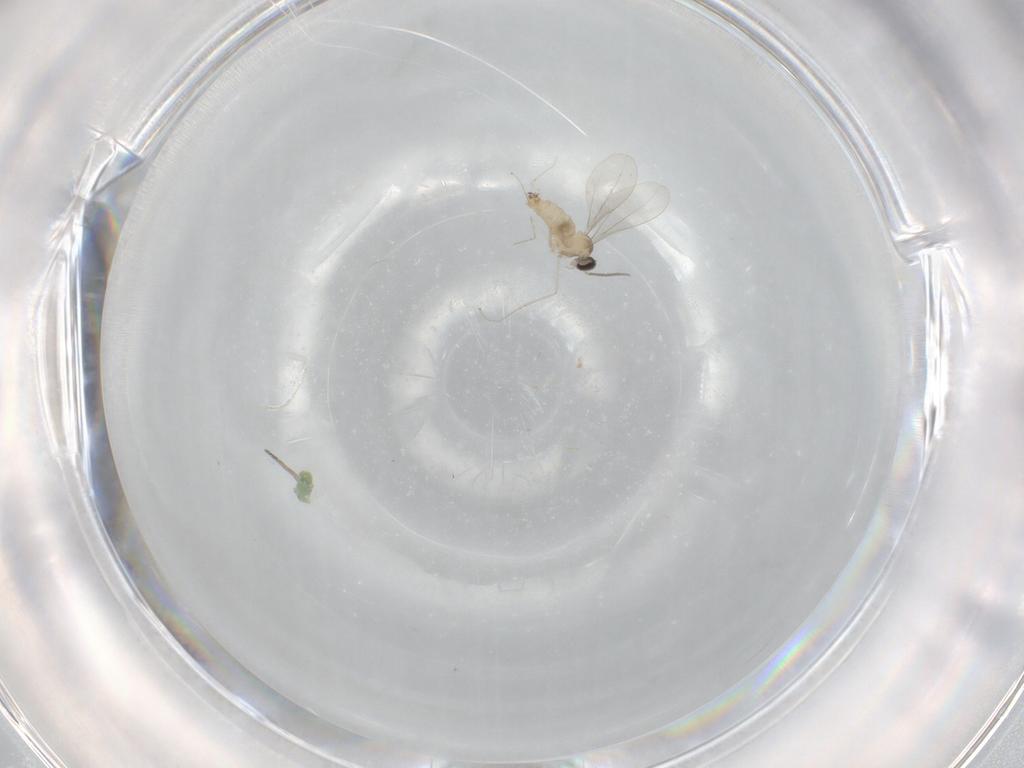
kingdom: Animalia
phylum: Arthropoda
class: Insecta
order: Diptera
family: Cecidomyiidae
